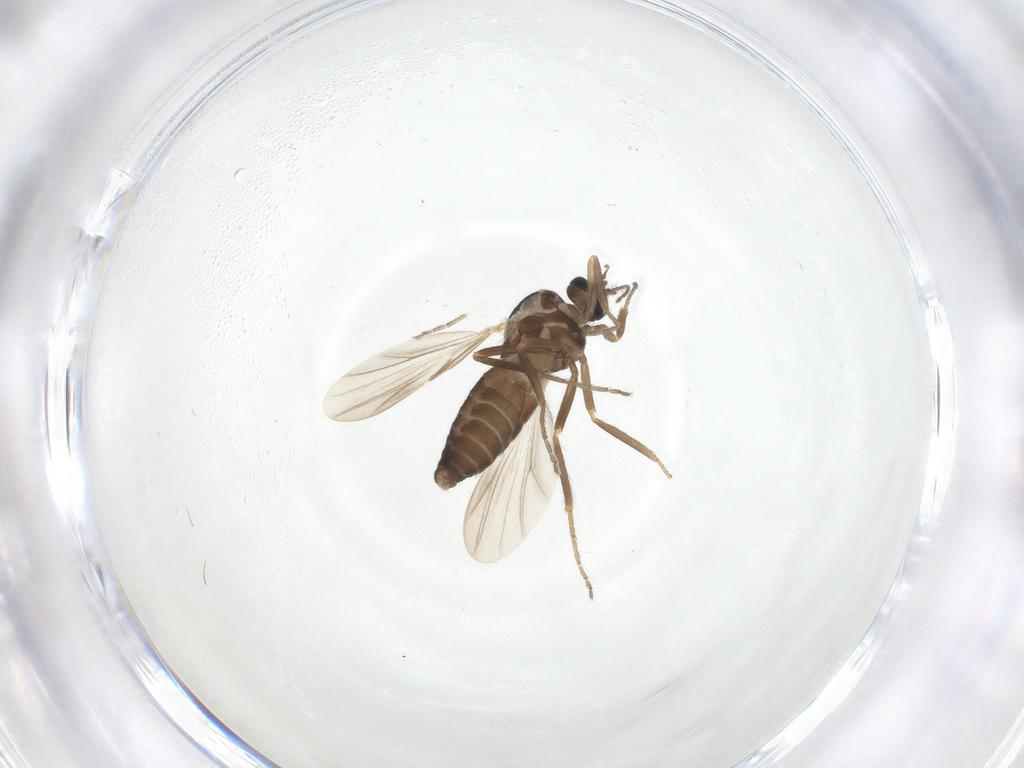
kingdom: Animalia
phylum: Arthropoda
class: Insecta
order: Diptera
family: Ceratopogonidae
